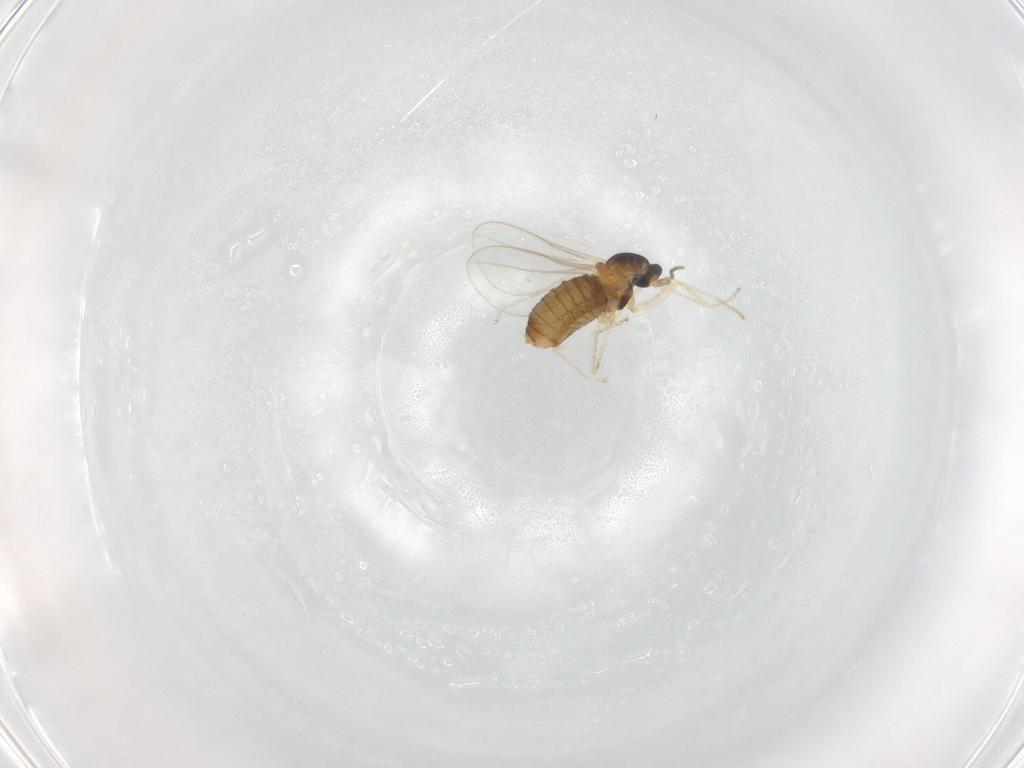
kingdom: Animalia
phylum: Arthropoda
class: Insecta
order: Diptera
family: Cecidomyiidae
